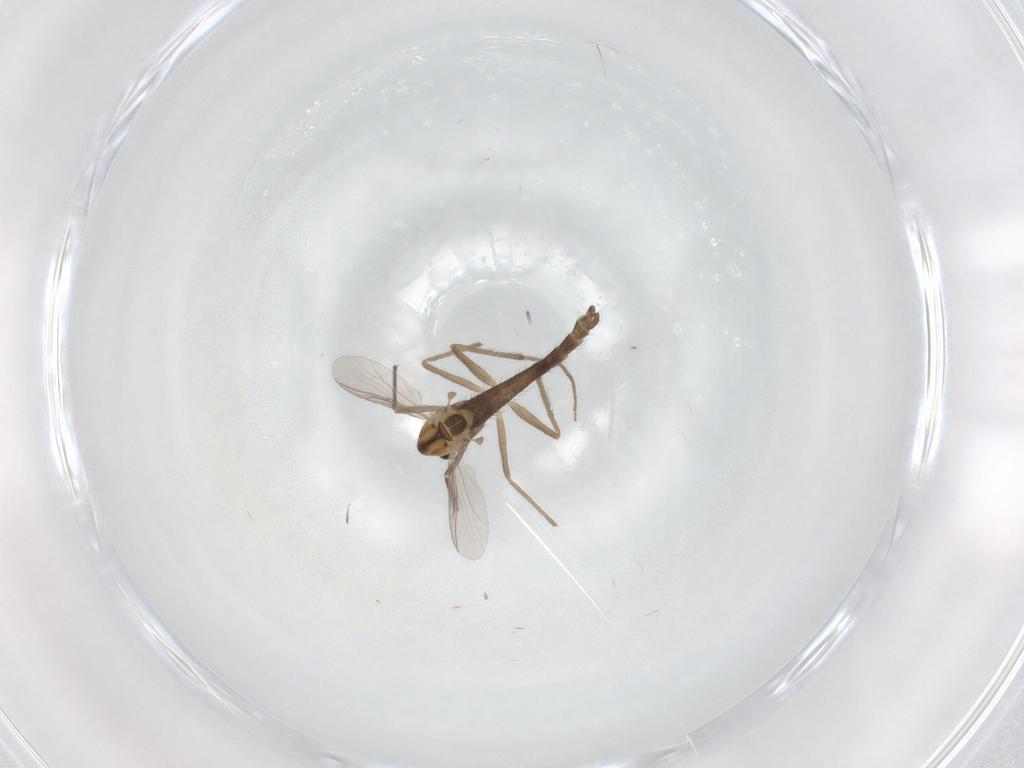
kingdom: Animalia
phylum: Arthropoda
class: Insecta
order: Diptera
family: Chironomidae
